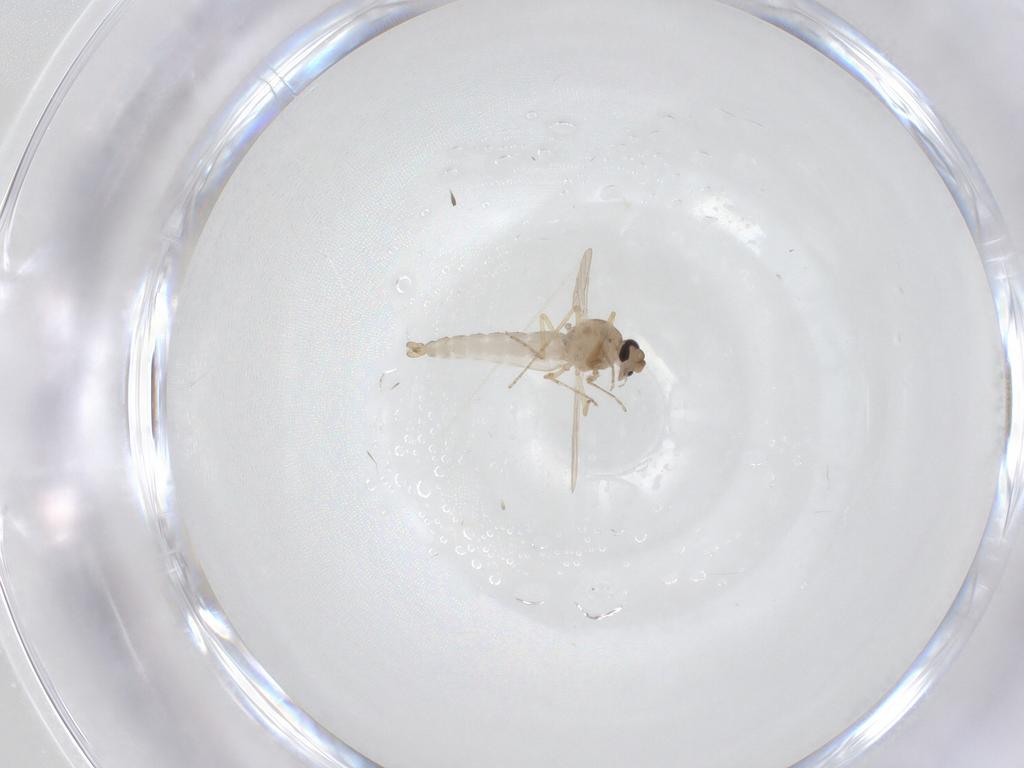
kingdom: Animalia
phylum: Arthropoda
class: Insecta
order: Diptera
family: Ceratopogonidae
